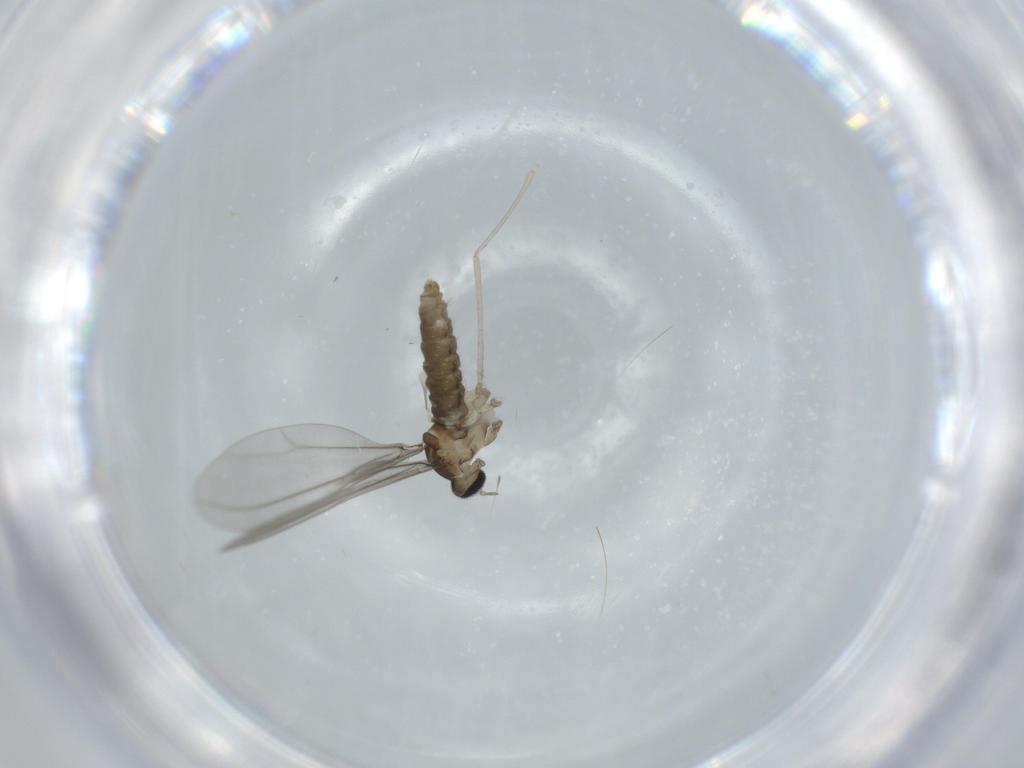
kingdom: Animalia
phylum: Arthropoda
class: Insecta
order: Diptera
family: Cecidomyiidae
